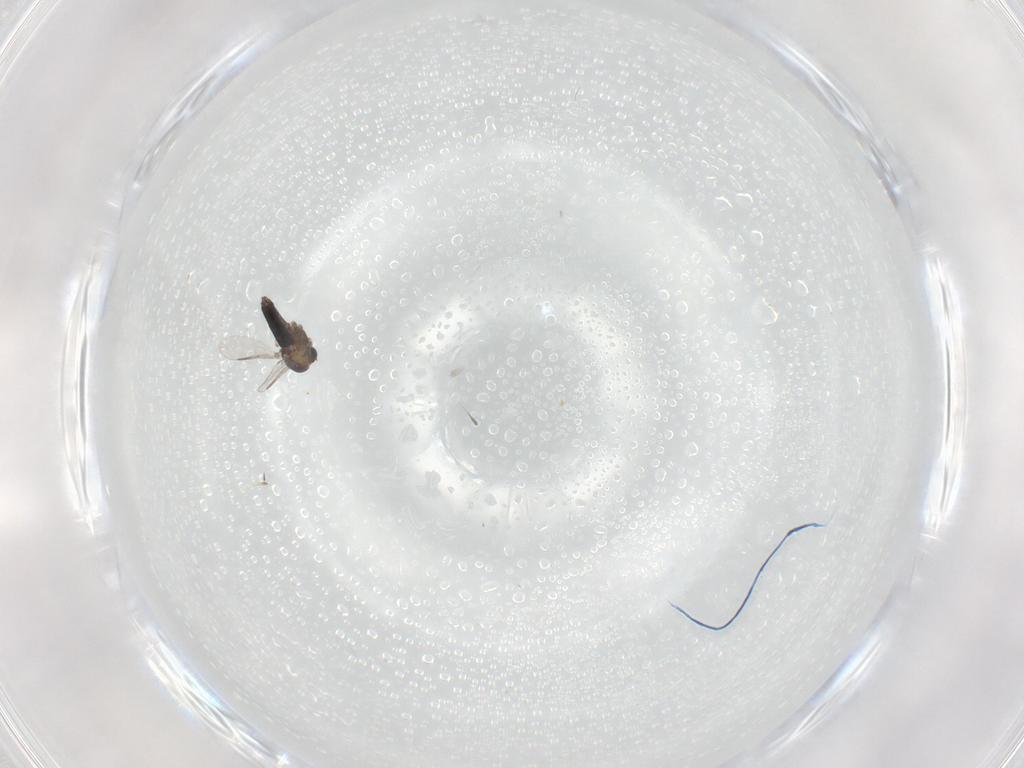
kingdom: Animalia
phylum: Arthropoda
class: Insecta
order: Diptera
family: Chironomidae
